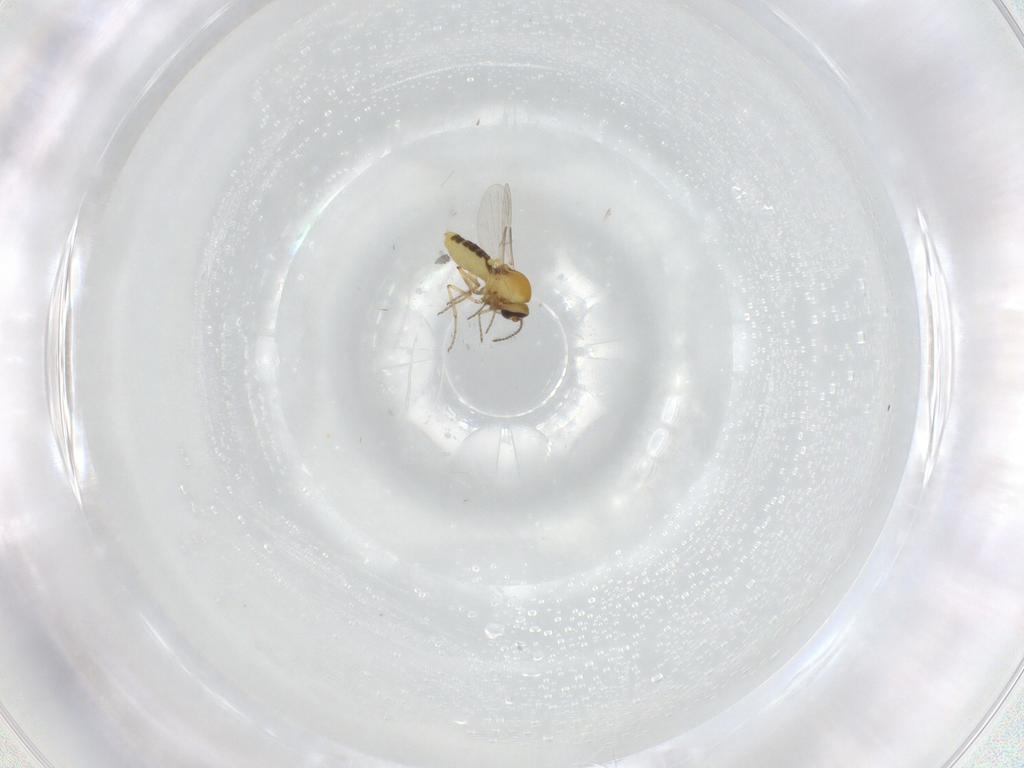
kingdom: Animalia
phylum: Arthropoda
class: Insecta
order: Diptera
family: Ceratopogonidae
